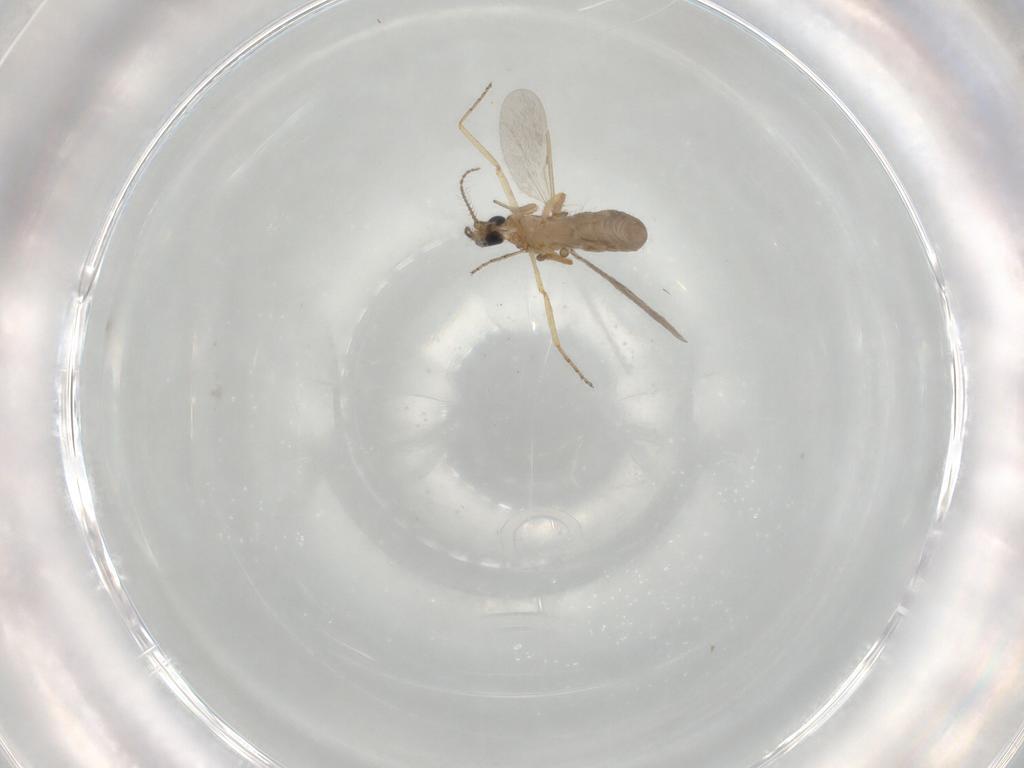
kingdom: Animalia
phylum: Arthropoda
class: Insecta
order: Diptera
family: Ceratopogonidae
